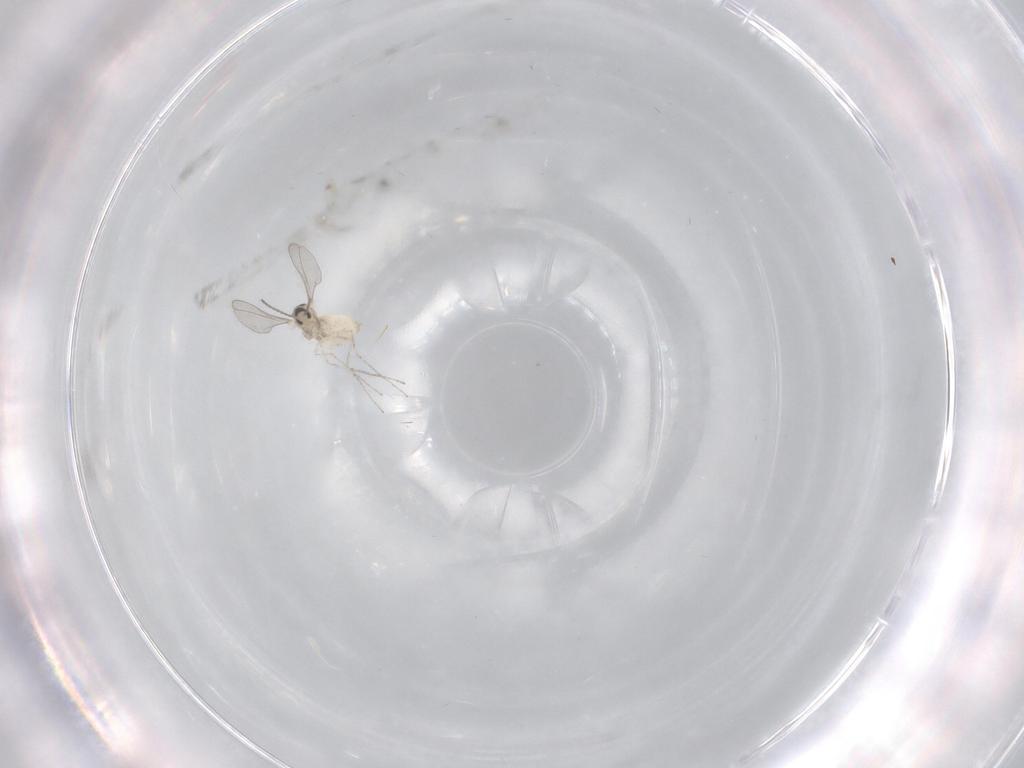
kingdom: Animalia
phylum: Arthropoda
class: Insecta
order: Diptera
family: Cecidomyiidae
